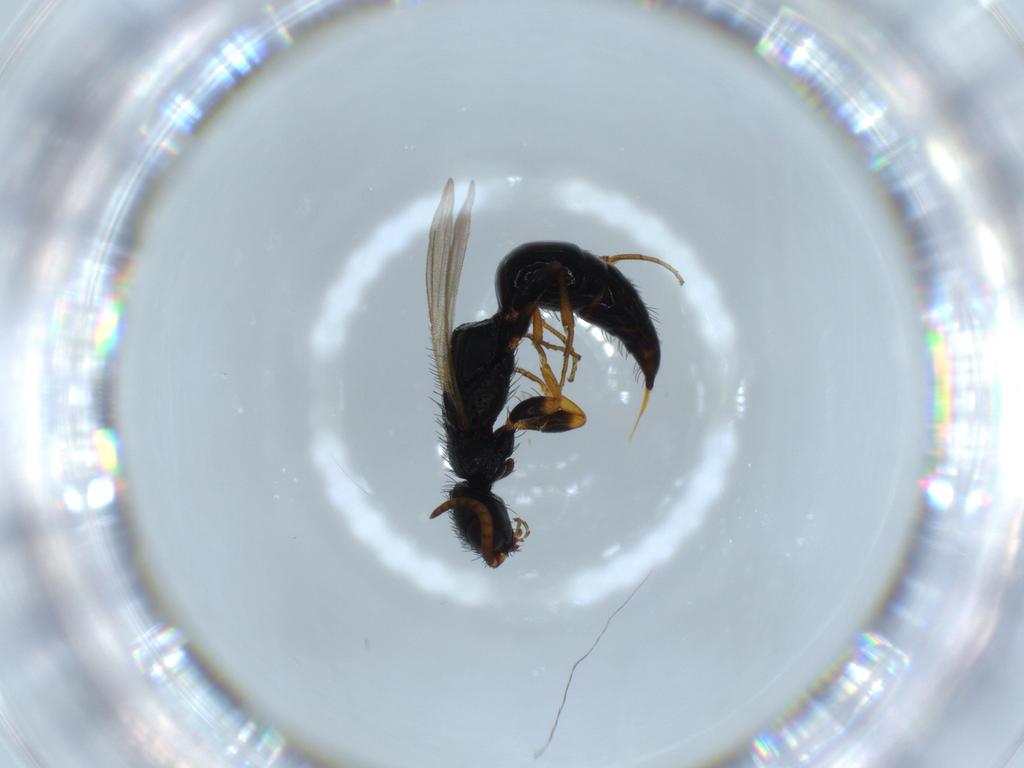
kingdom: Animalia
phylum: Arthropoda
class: Insecta
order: Hymenoptera
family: Bethylidae
